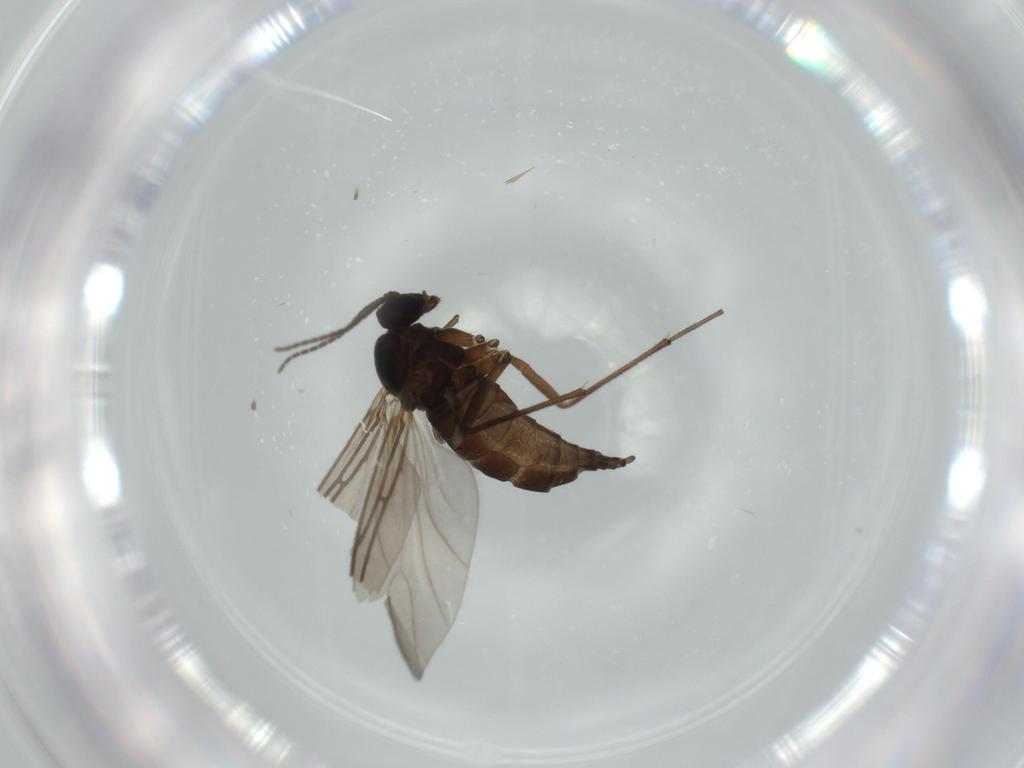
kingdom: Animalia
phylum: Arthropoda
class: Insecta
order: Diptera
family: Sciaridae
